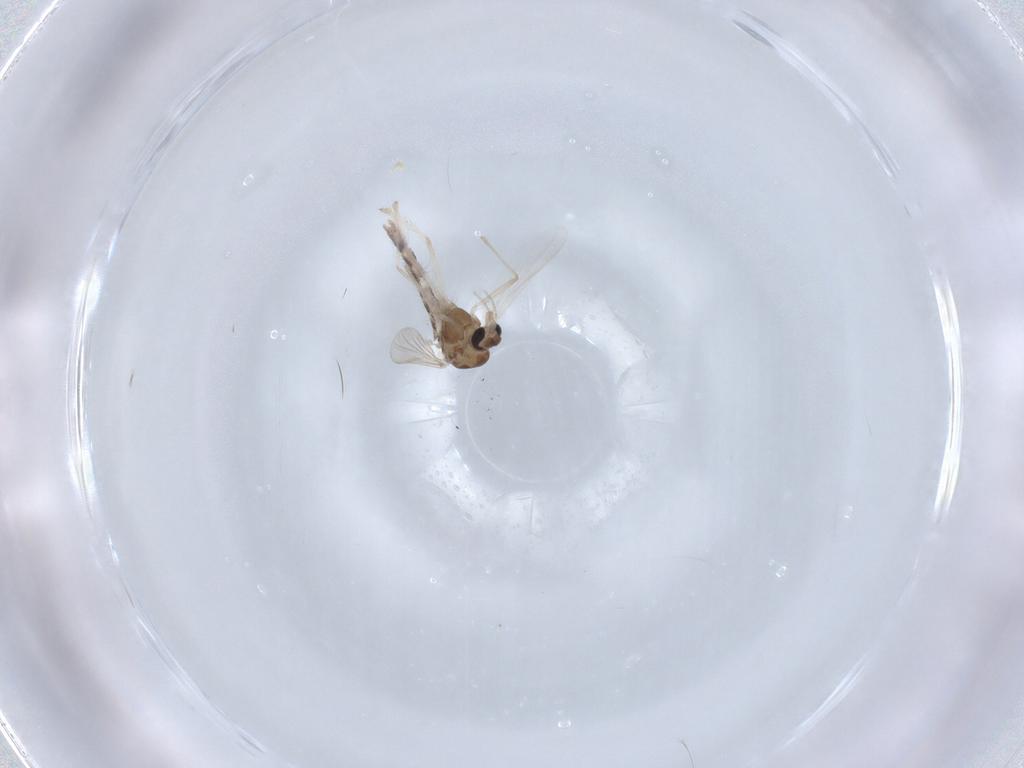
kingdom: Animalia
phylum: Arthropoda
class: Insecta
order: Diptera
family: Chironomidae
